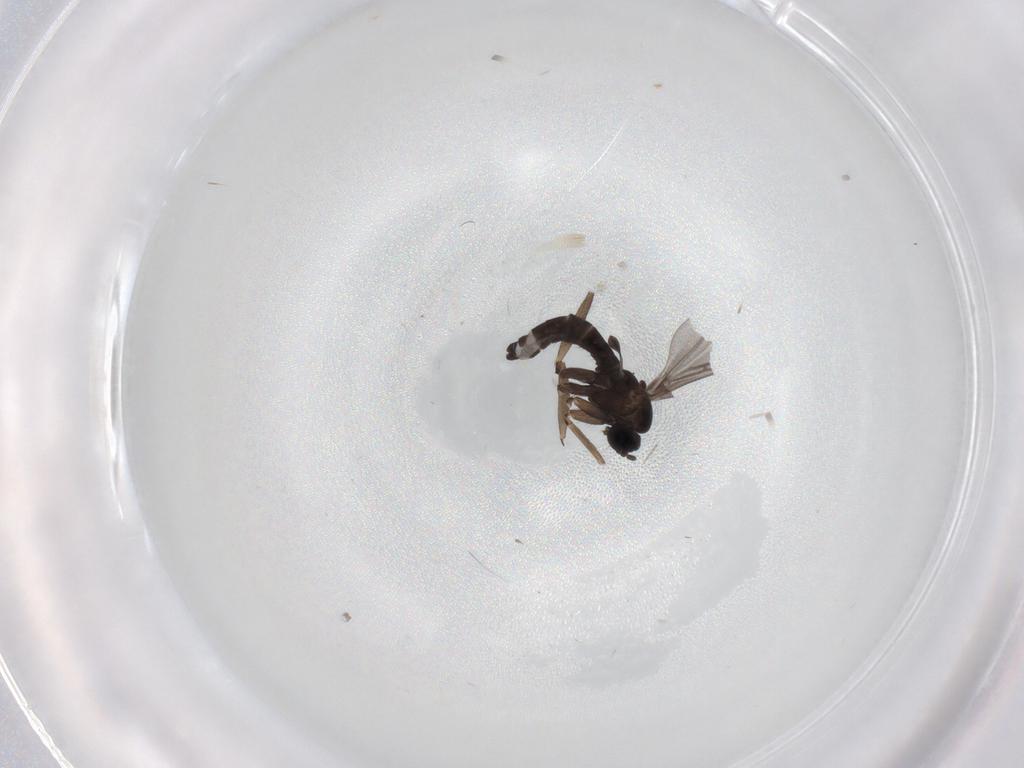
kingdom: Animalia
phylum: Arthropoda
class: Insecta
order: Diptera
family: Sciaridae
